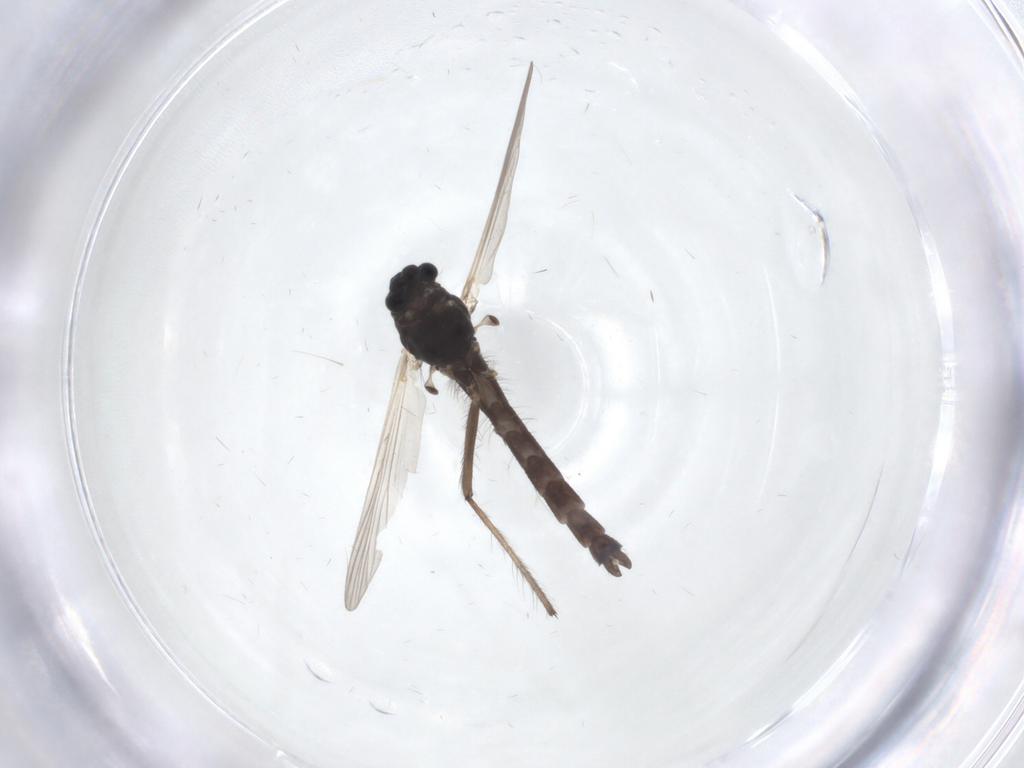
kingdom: Animalia
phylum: Arthropoda
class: Insecta
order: Diptera
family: Chironomidae
